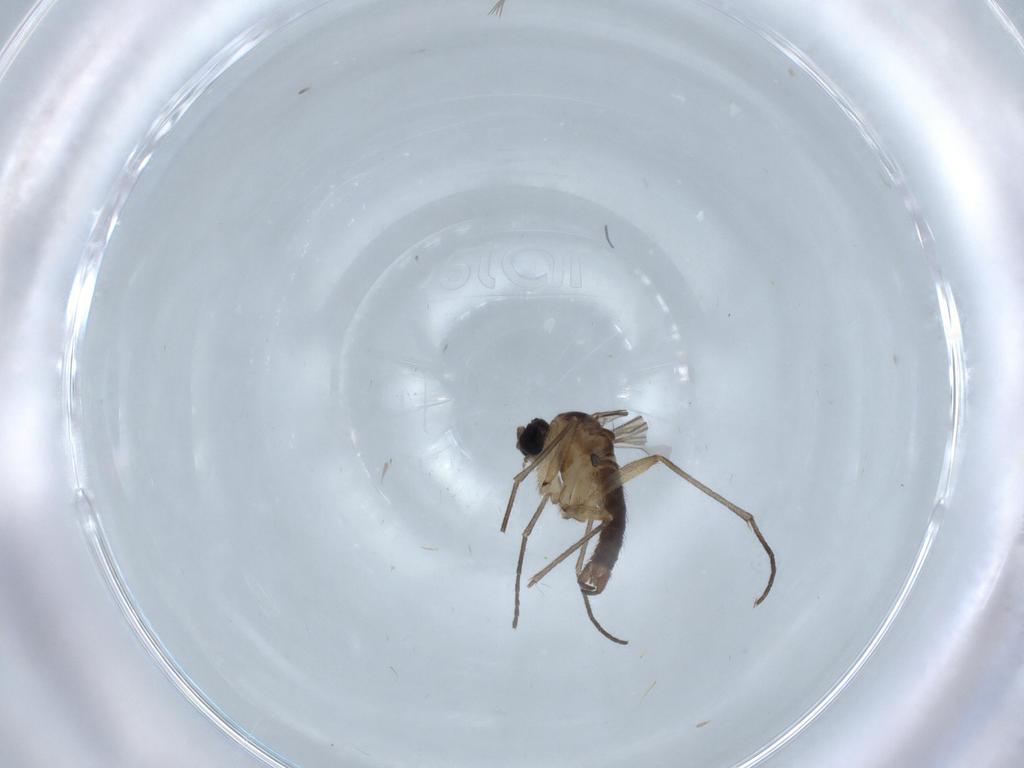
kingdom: Animalia
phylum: Arthropoda
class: Insecta
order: Diptera
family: Sciaridae
